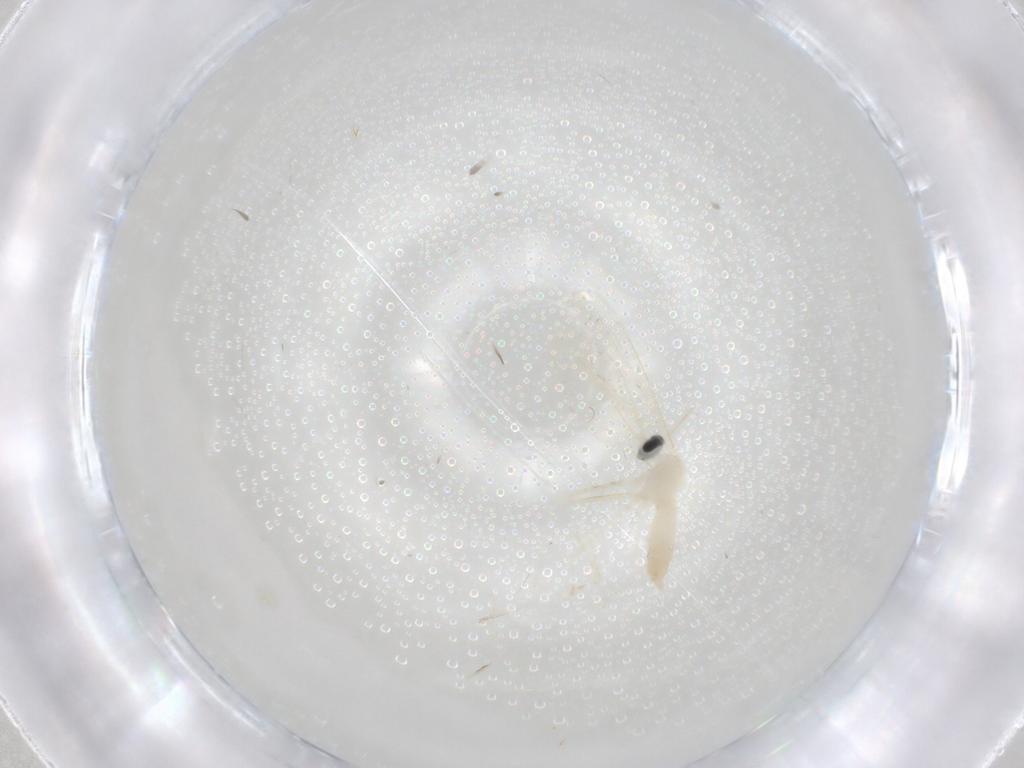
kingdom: Animalia
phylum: Arthropoda
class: Insecta
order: Diptera
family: Cecidomyiidae
